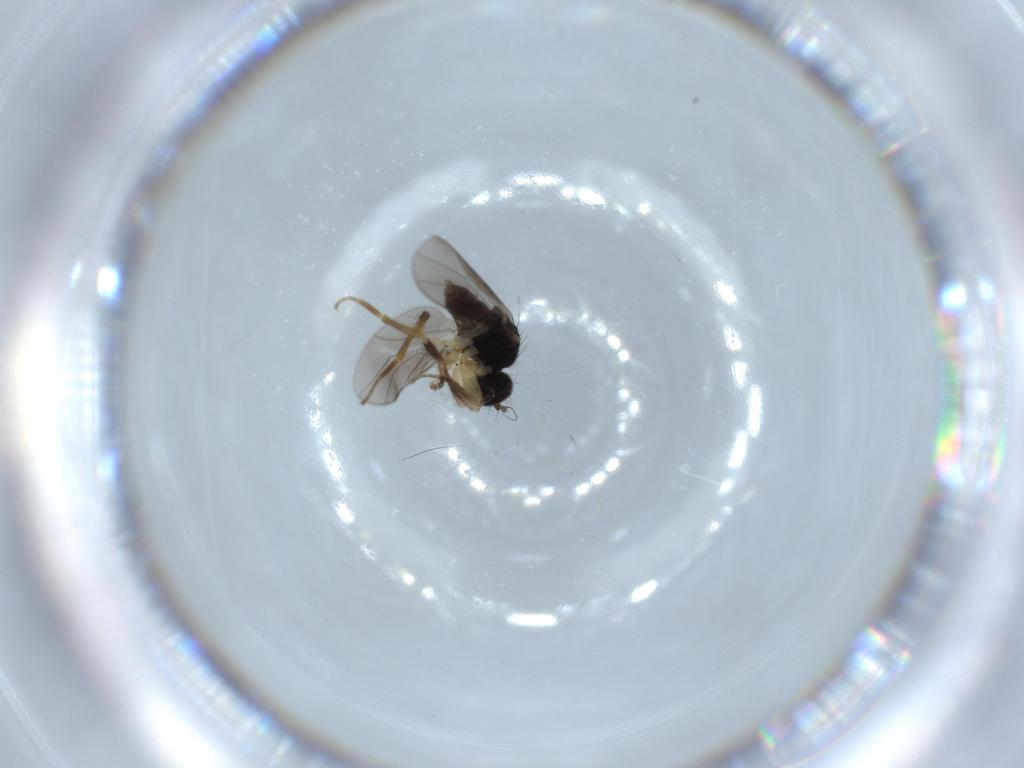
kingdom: Animalia
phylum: Arthropoda
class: Insecta
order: Diptera
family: Hybotidae
